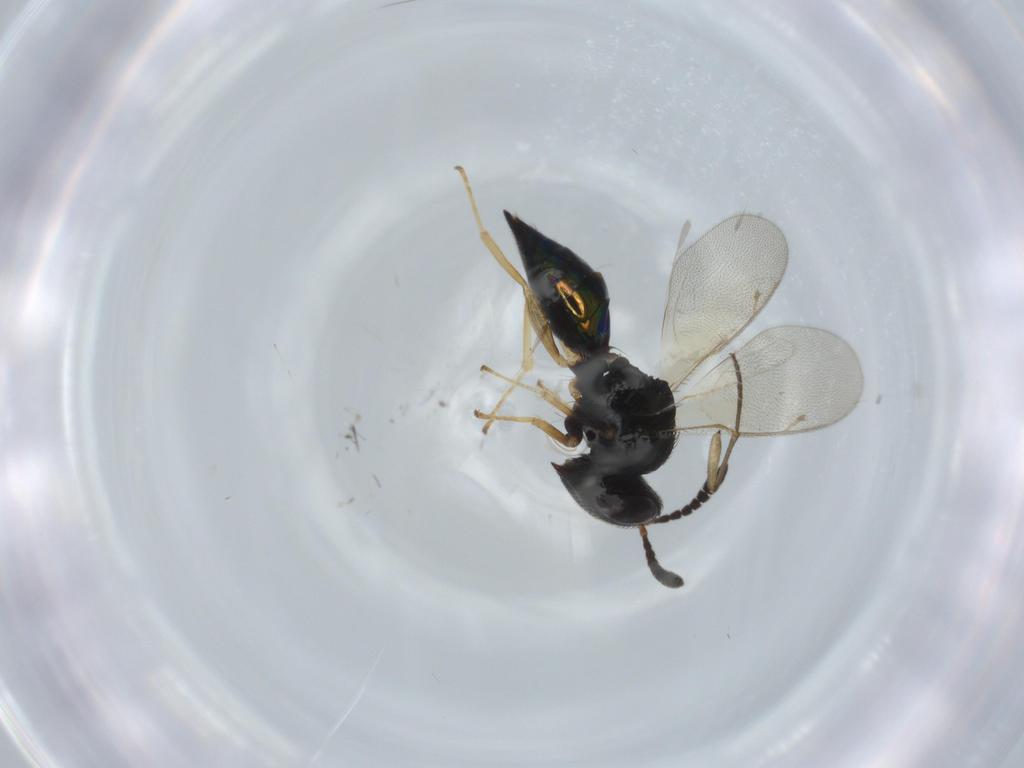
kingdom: Animalia
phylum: Arthropoda
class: Insecta
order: Hymenoptera
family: Pteromalidae
